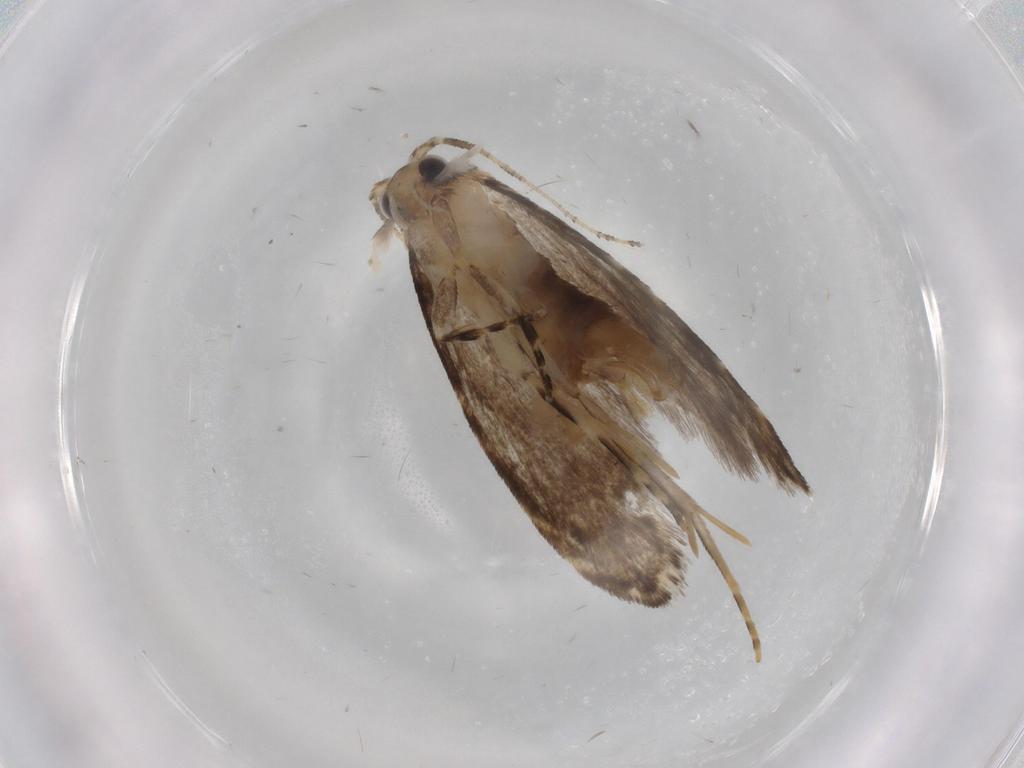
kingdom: Animalia
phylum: Arthropoda
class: Insecta
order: Lepidoptera
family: Tineidae
